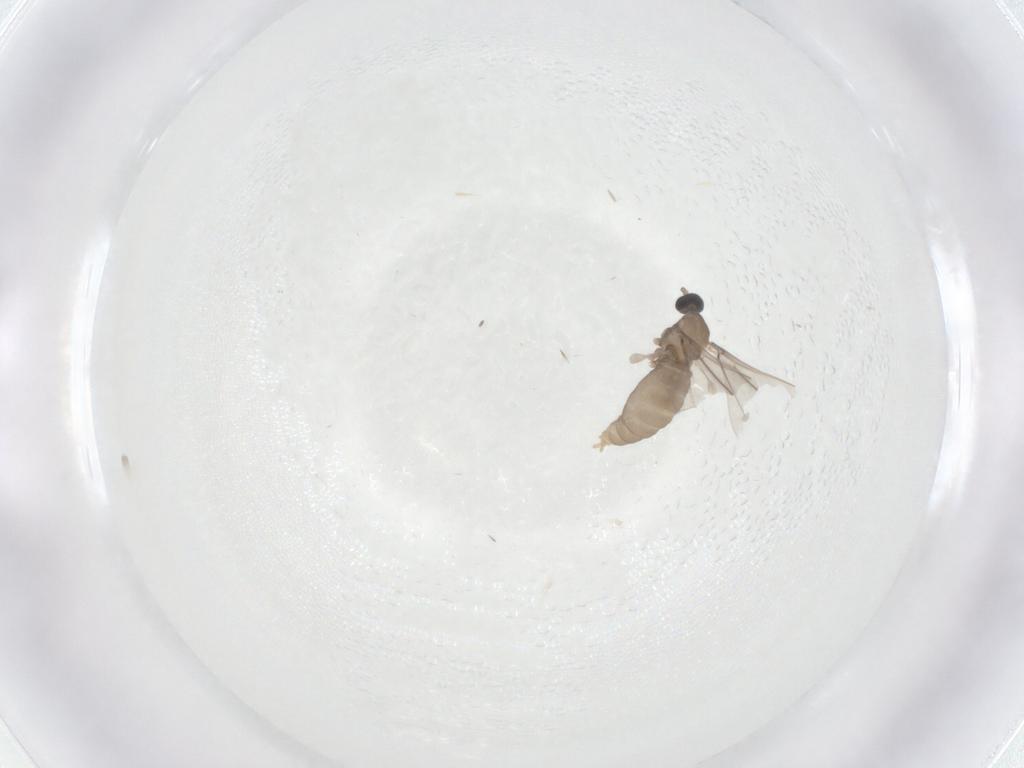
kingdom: Animalia
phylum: Arthropoda
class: Insecta
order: Diptera
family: Cecidomyiidae
